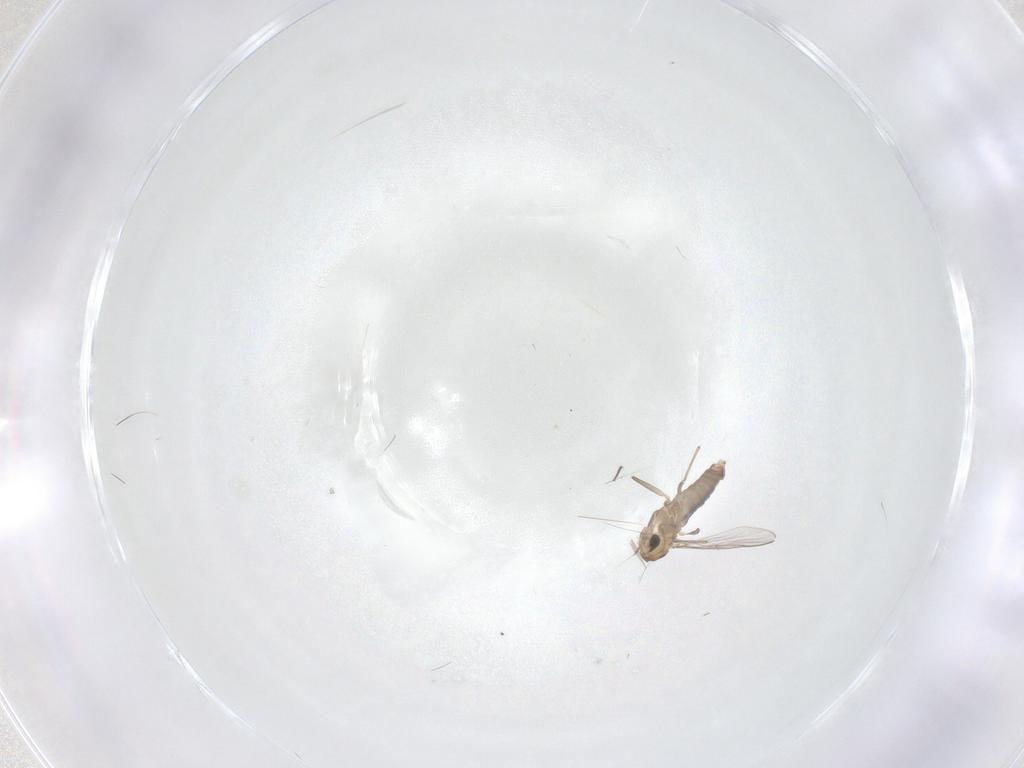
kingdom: Animalia
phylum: Arthropoda
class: Insecta
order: Diptera
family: Chironomidae
